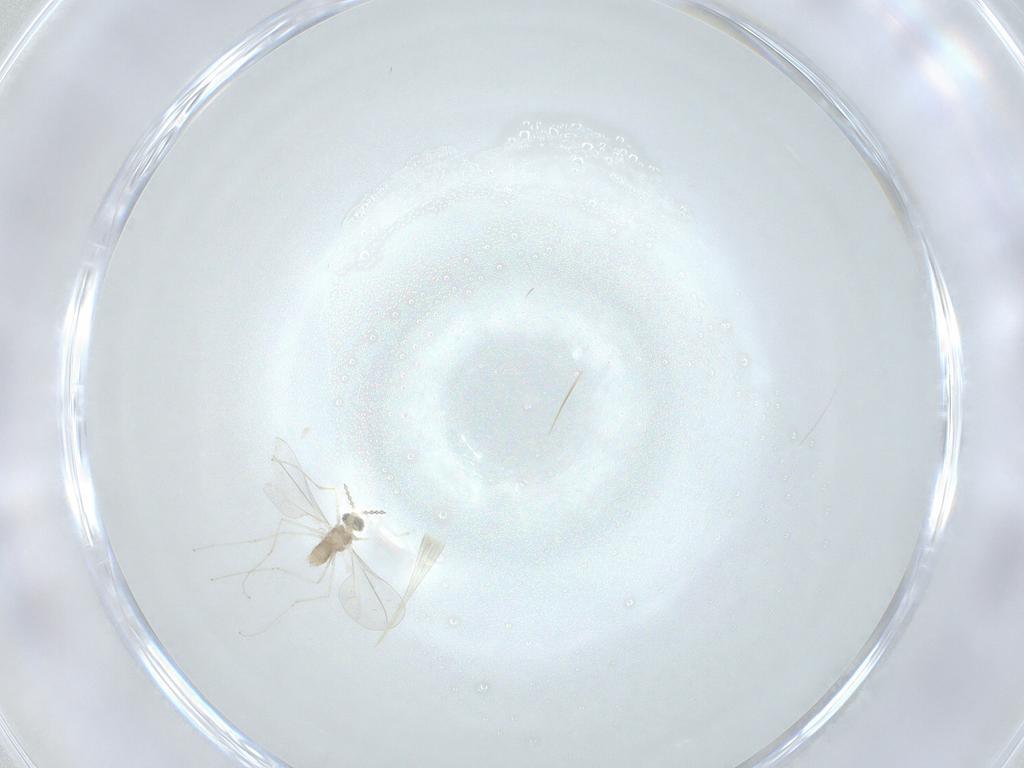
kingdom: Animalia
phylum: Arthropoda
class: Insecta
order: Diptera
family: Cecidomyiidae
